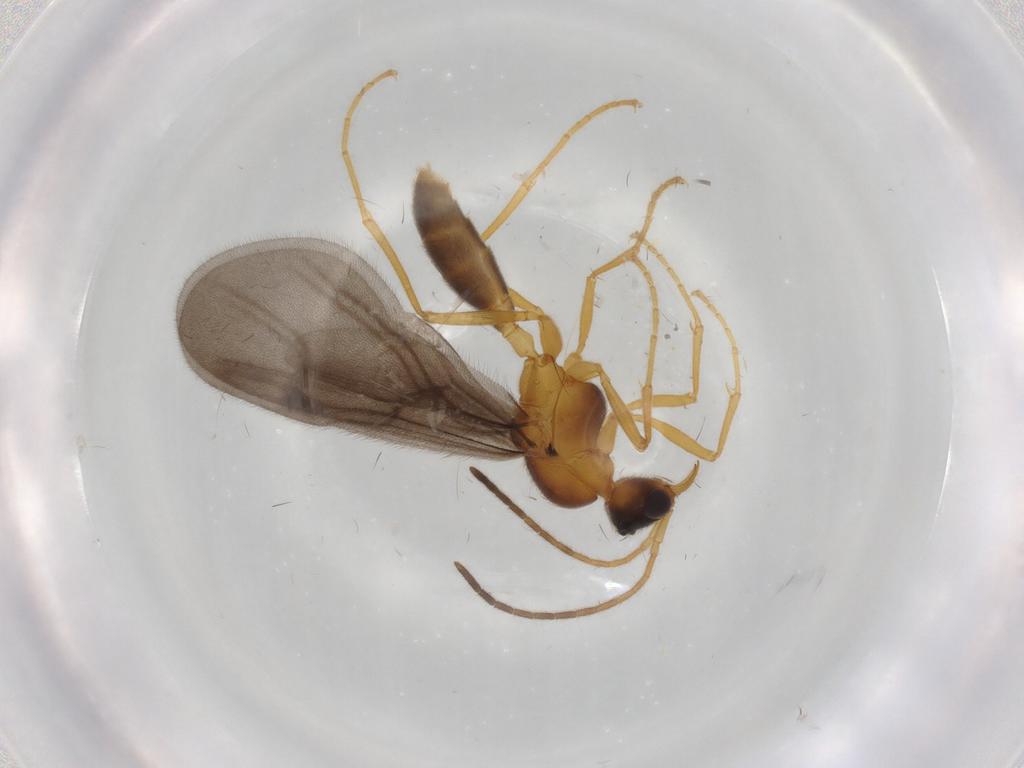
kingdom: Animalia
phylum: Arthropoda
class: Insecta
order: Hymenoptera
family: Formicidae
